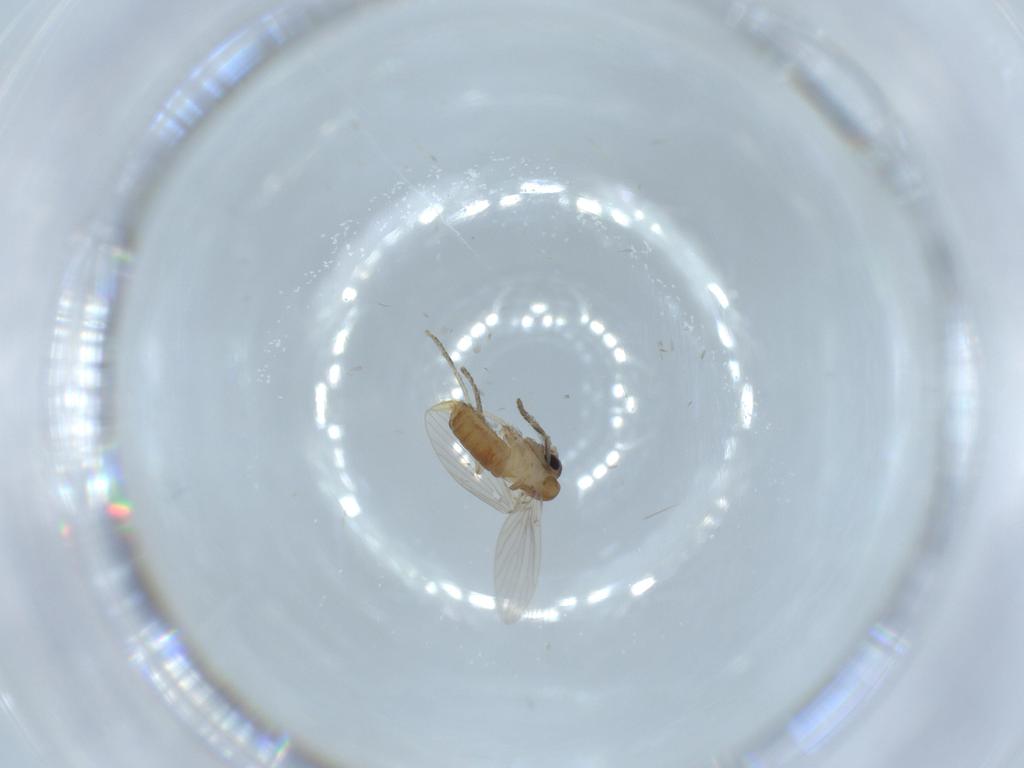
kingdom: Animalia
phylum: Arthropoda
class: Insecta
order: Diptera
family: Psychodidae
